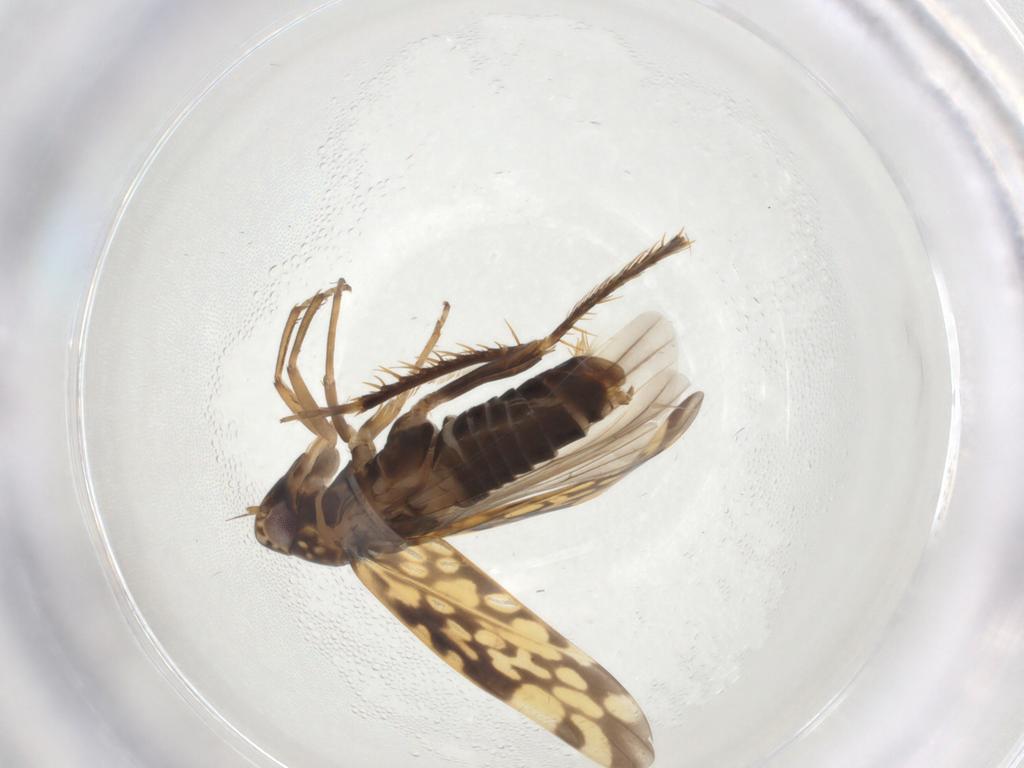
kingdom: Animalia
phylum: Arthropoda
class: Insecta
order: Hemiptera
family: Cicadellidae
